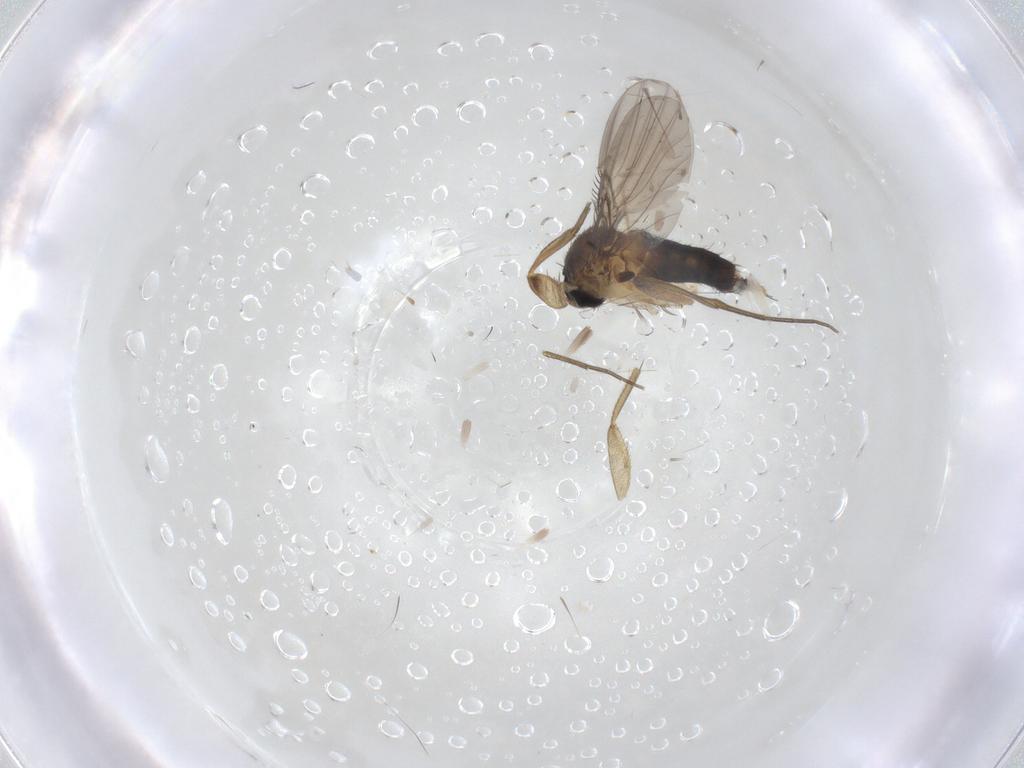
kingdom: Animalia
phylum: Arthropoda
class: Insecta
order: Diptera
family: Phoridae
